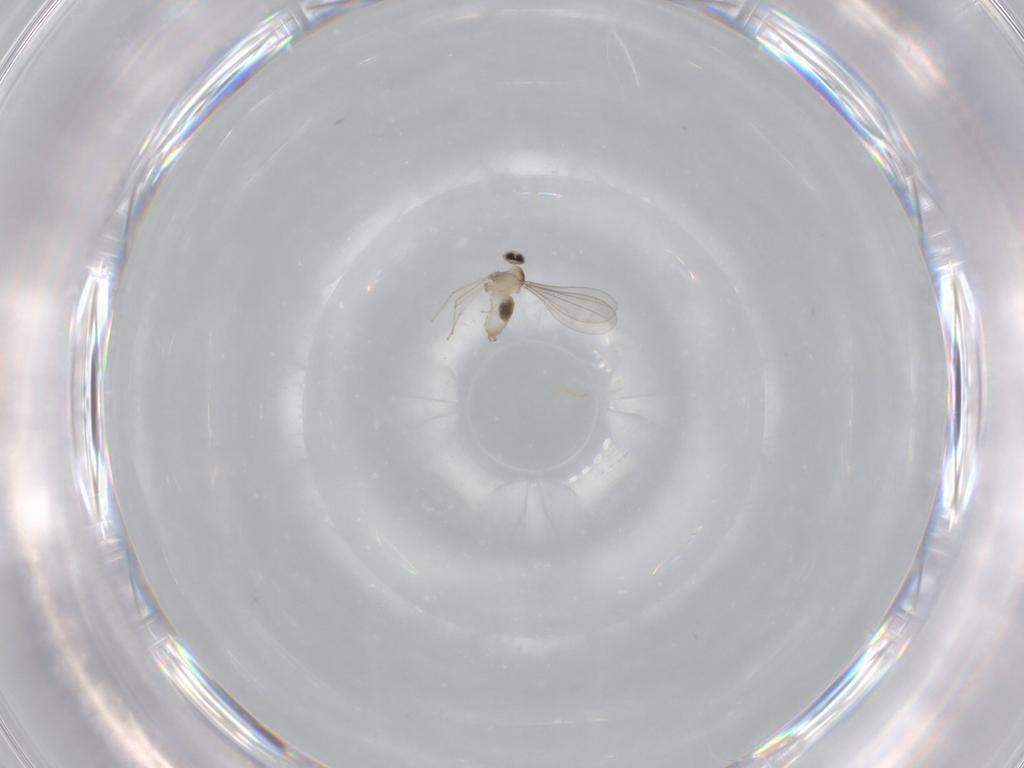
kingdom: Animalia
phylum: Arthropoda
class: Insecta
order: Diptera
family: Cecidomyiidae
